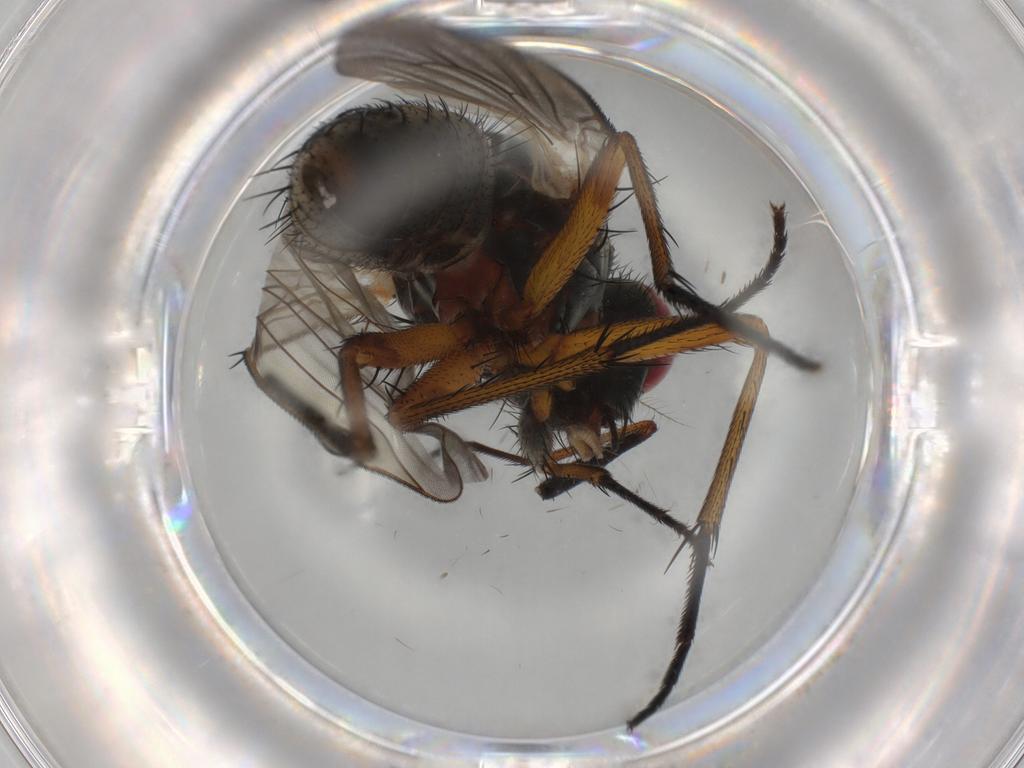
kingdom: Animalia
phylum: Arthropoda
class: Insecta
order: Diptera
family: Muscidae
